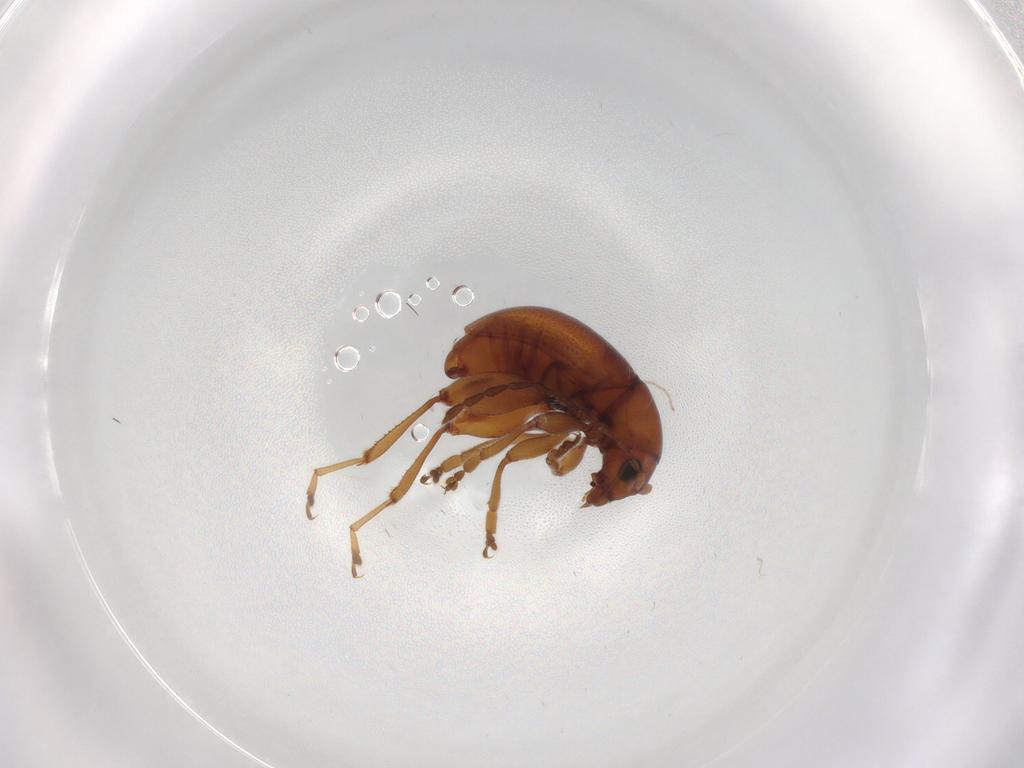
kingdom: Animalia
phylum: Arthropoda
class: Insecta
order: Coleoptera
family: Chrysomelidae
